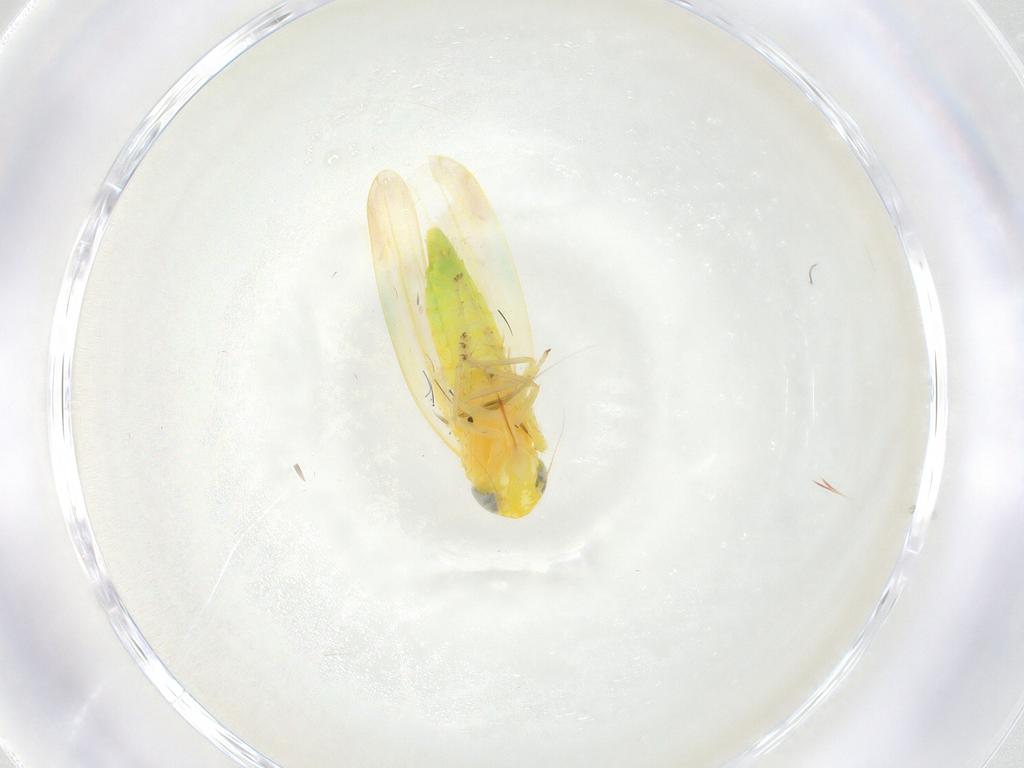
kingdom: Animalia
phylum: Arthropoda
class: Insecta
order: Hemiptera
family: Cicadellidae
